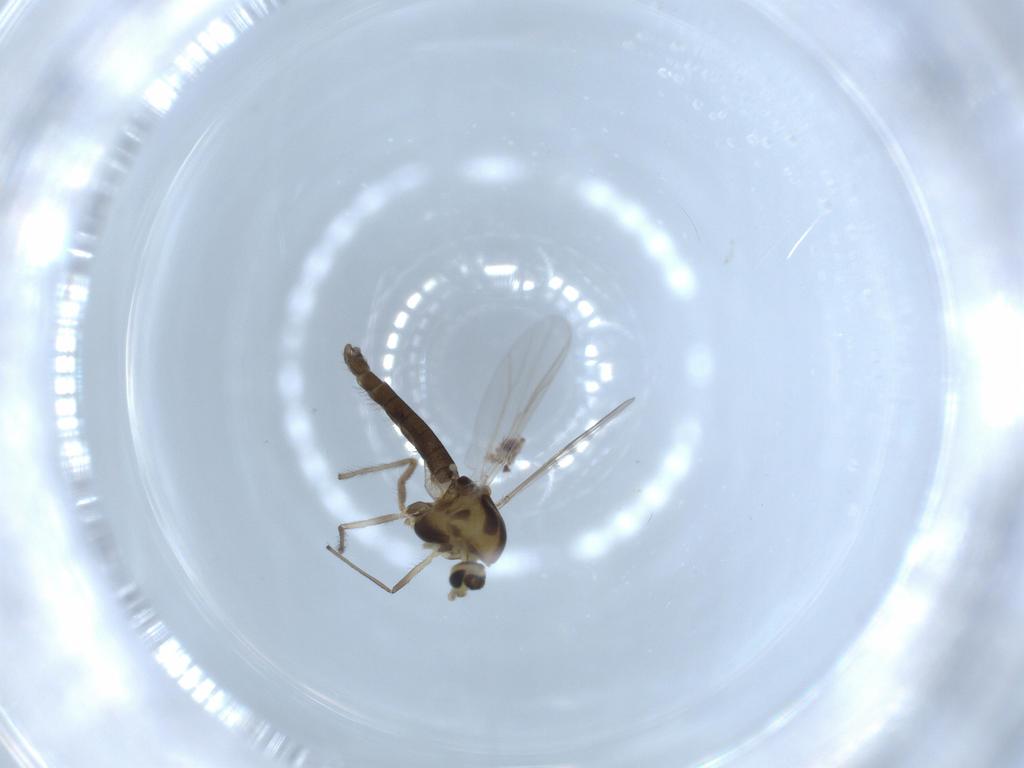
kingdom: Animalia
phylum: Arthropoda
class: Insecta
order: Diptera
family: Chironomidae
